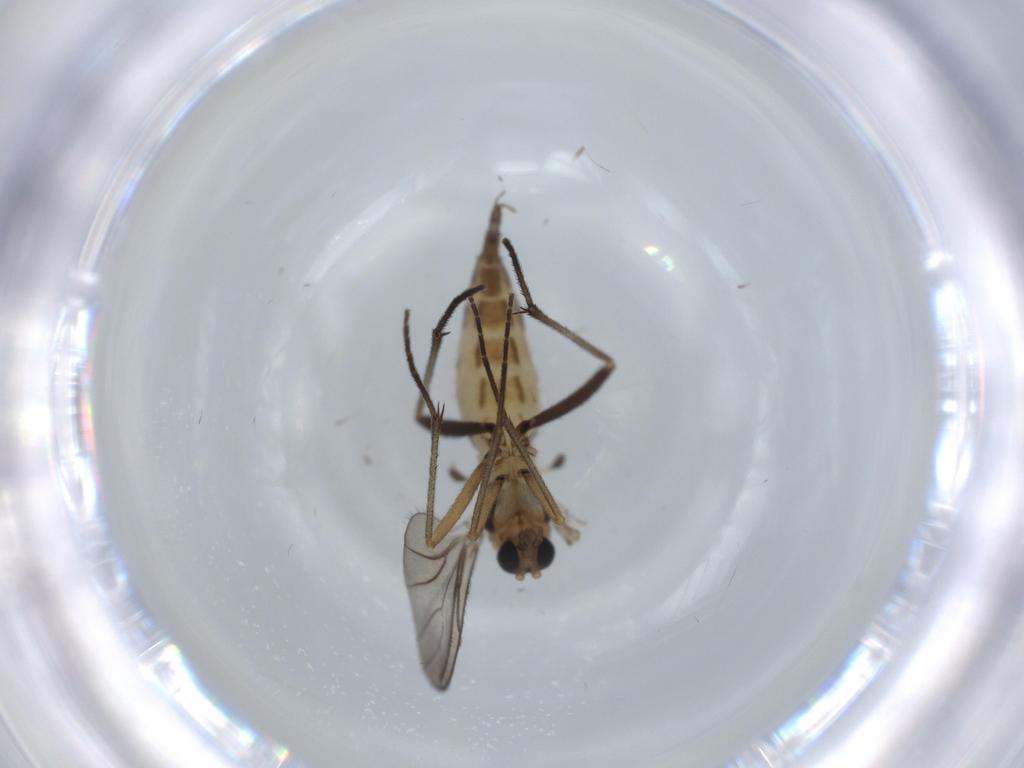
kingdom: Animalia
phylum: Arthropoda
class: Insecta
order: Diptera
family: Sciaridae
